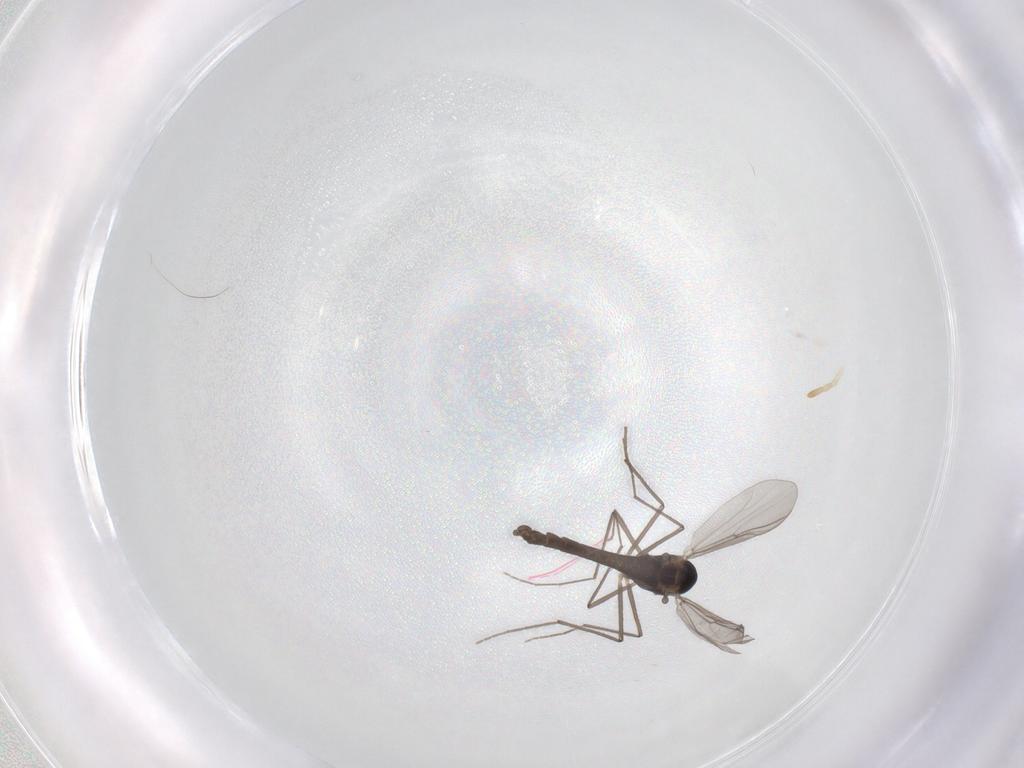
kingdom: Animalia
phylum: Arthropoda
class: Insecta
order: Diptera
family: Chironomidae
